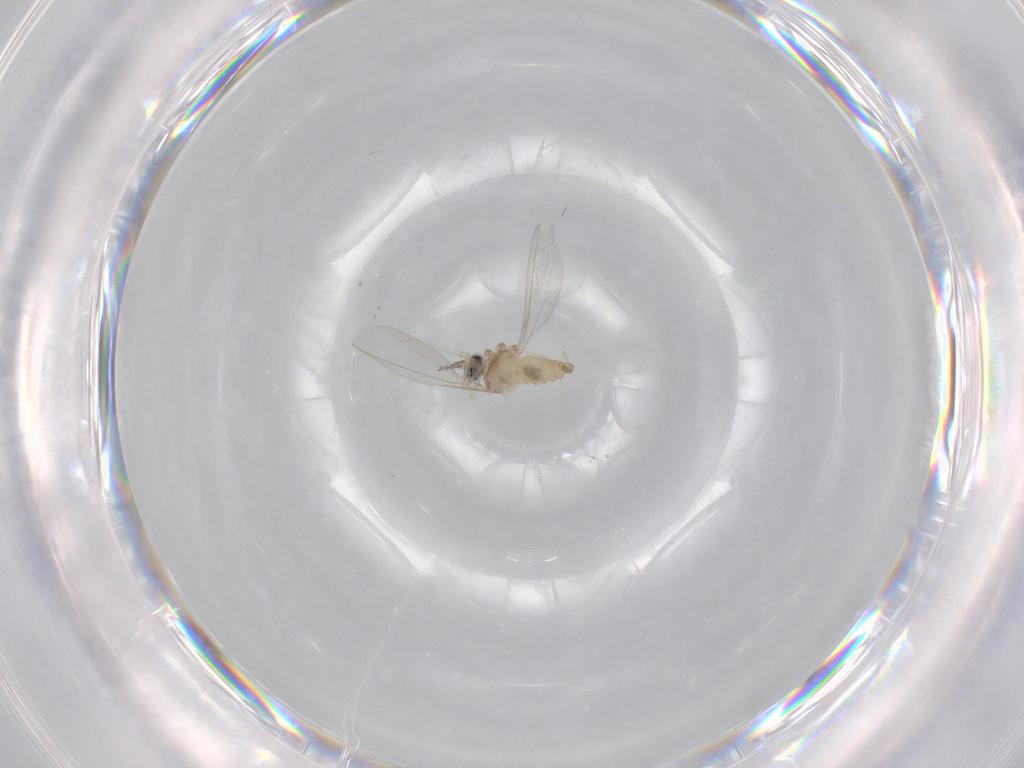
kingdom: Animalia
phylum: Arthropoda
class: Insecta
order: Diptera
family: Cecidomyiidae
